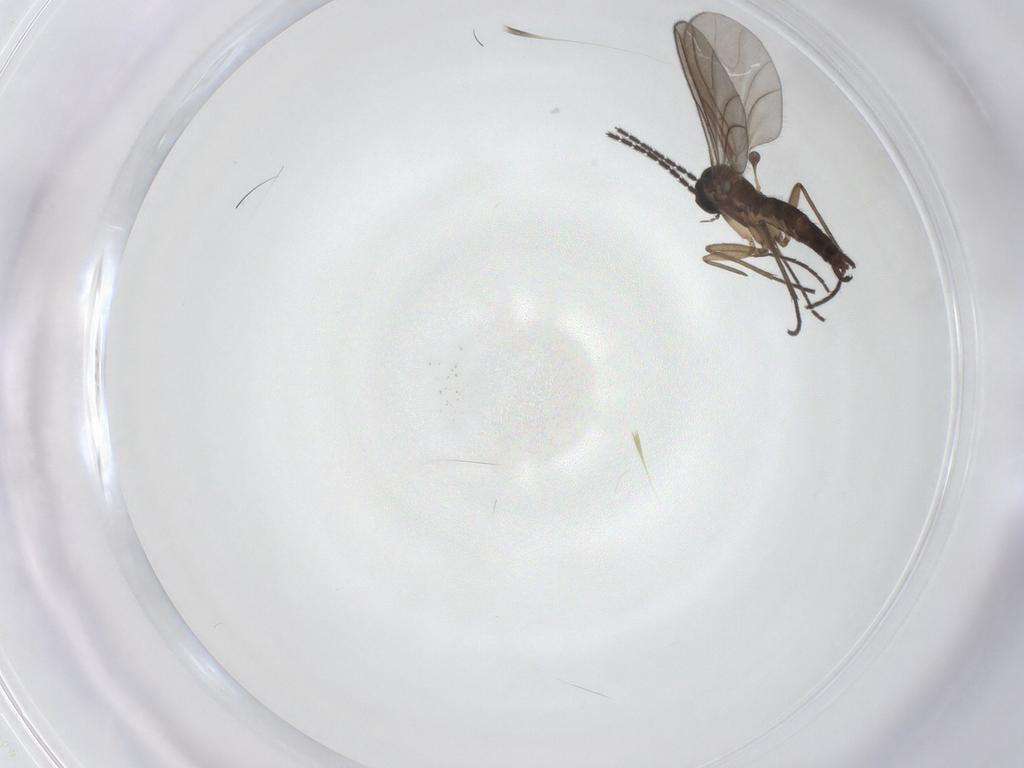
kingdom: Animalia
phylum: Arthropoda
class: Insecta
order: Diptera
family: Sciaridae
